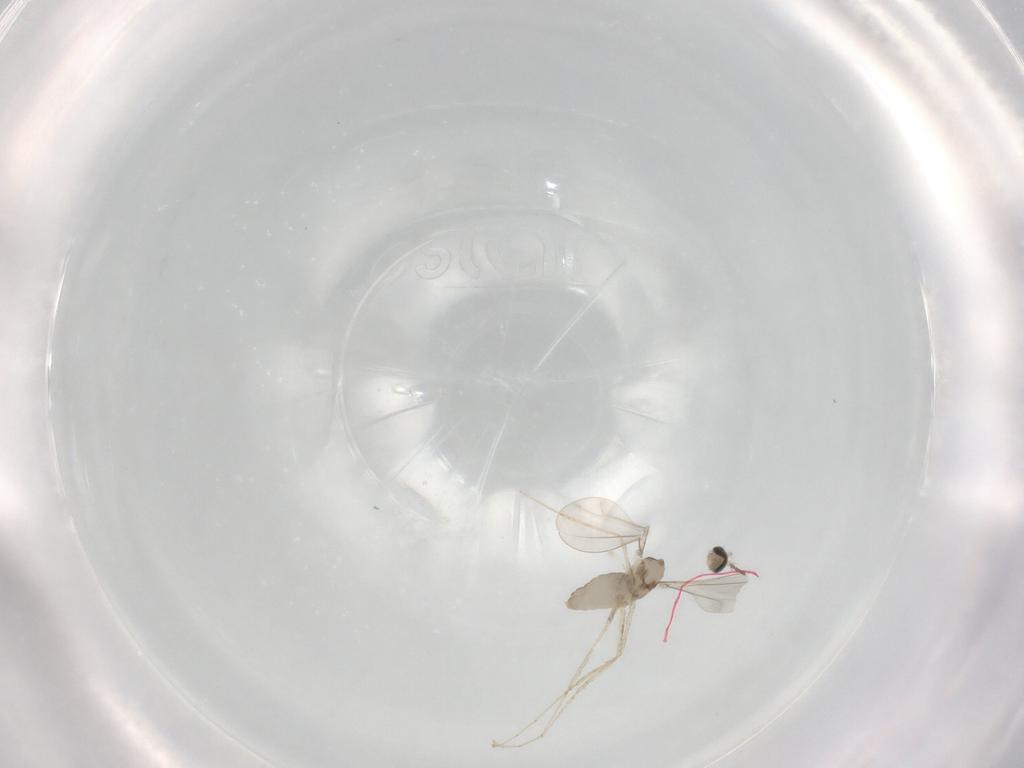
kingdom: Animalia
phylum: Arthropoda
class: Insecta
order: Diptera
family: Cecidomyiidae
